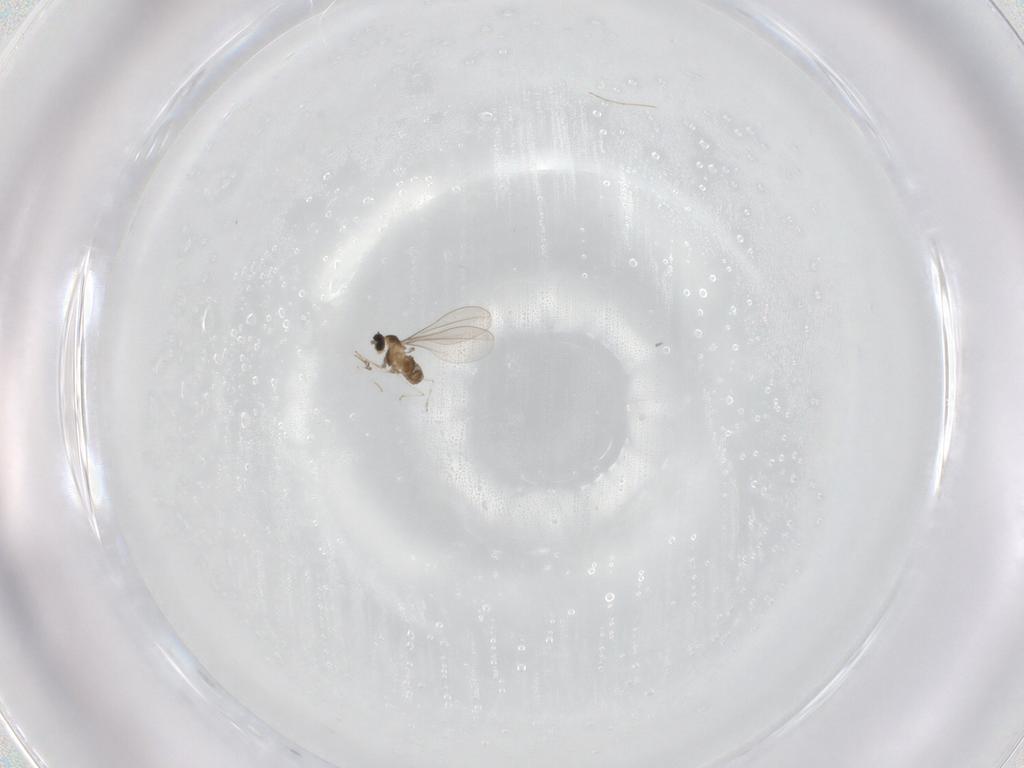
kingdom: Animalia
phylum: Arthropoda
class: Insecta
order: Diptera
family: Cecidomyiidae
